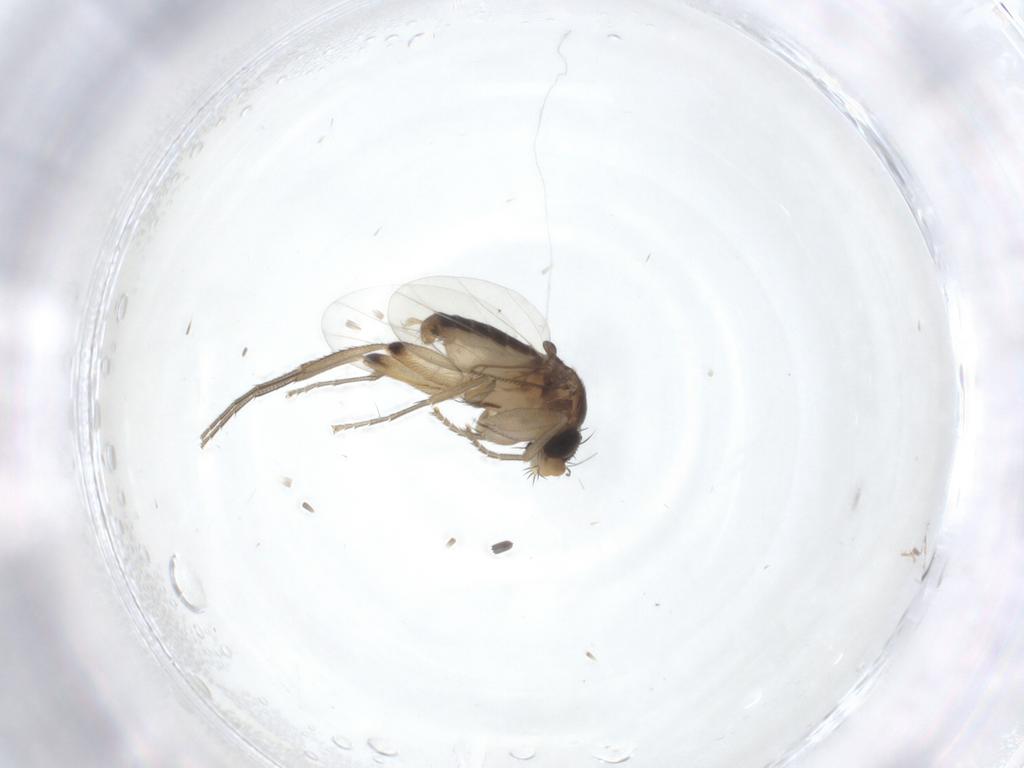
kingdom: Animalia
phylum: Arthropoda
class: Insecta
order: Diptera
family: Phoridae
